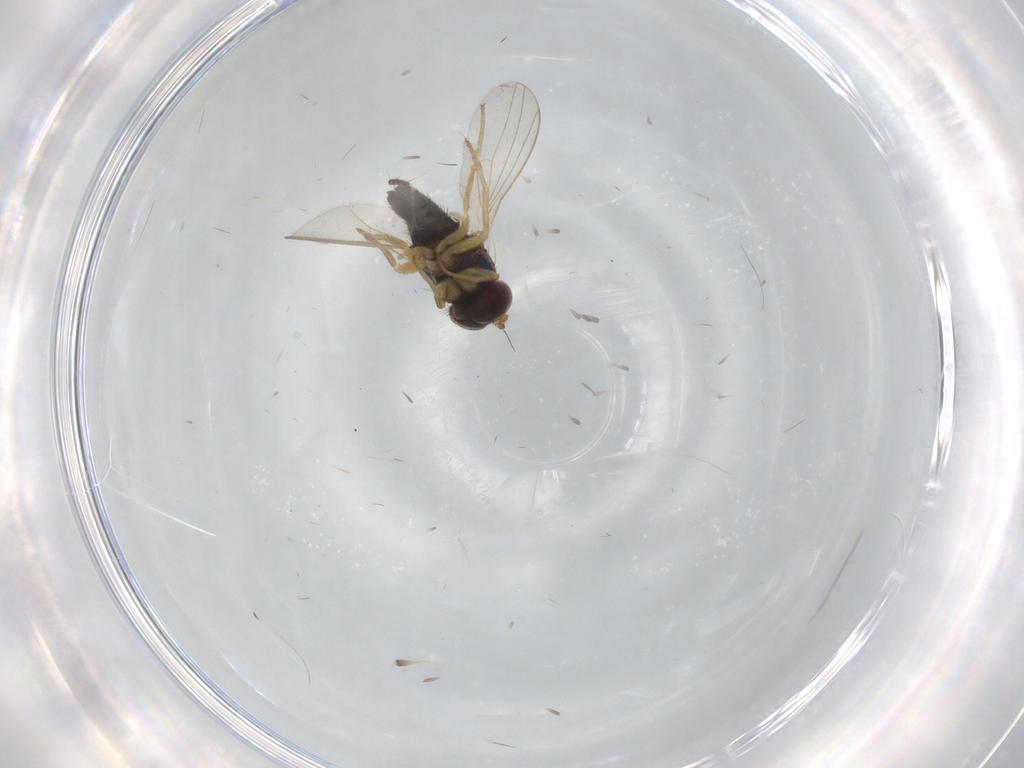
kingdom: Animalia
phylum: Arthropoda
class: Insecta
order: Diptera
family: Dolichopodidae
